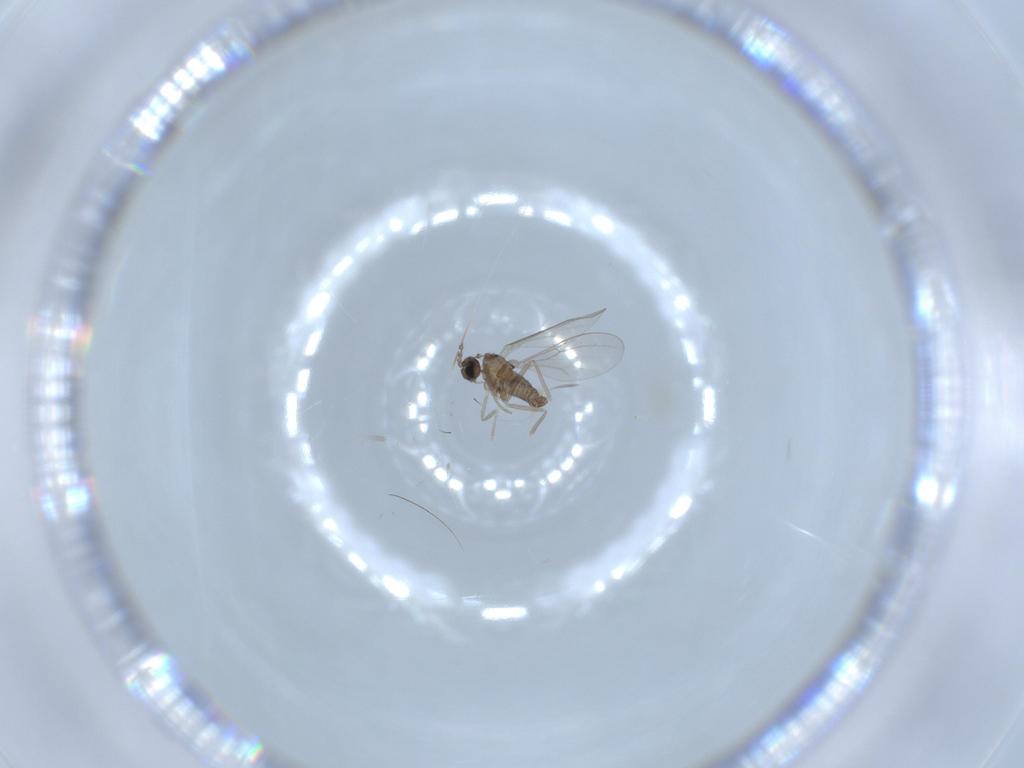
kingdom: Animalia
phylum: Arthropoda
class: Insecta
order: Diptera
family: Cecidomyiidae
